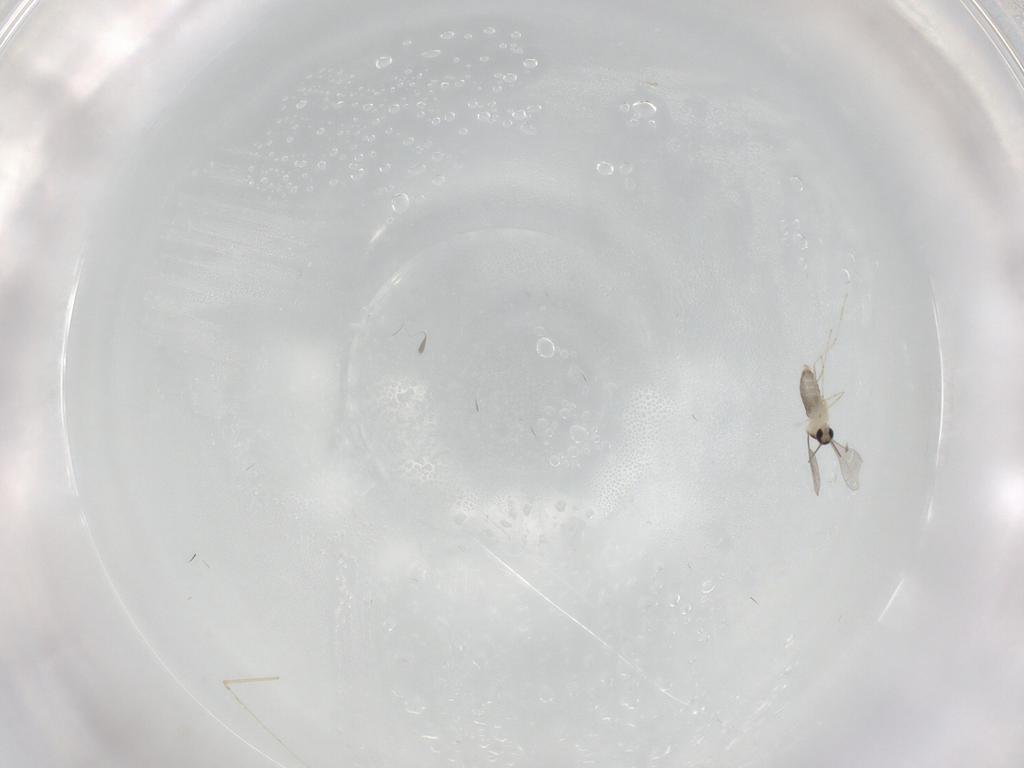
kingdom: Animalia
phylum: Arthropoda
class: Insecta
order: Diptera
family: Cecidomyiidae
